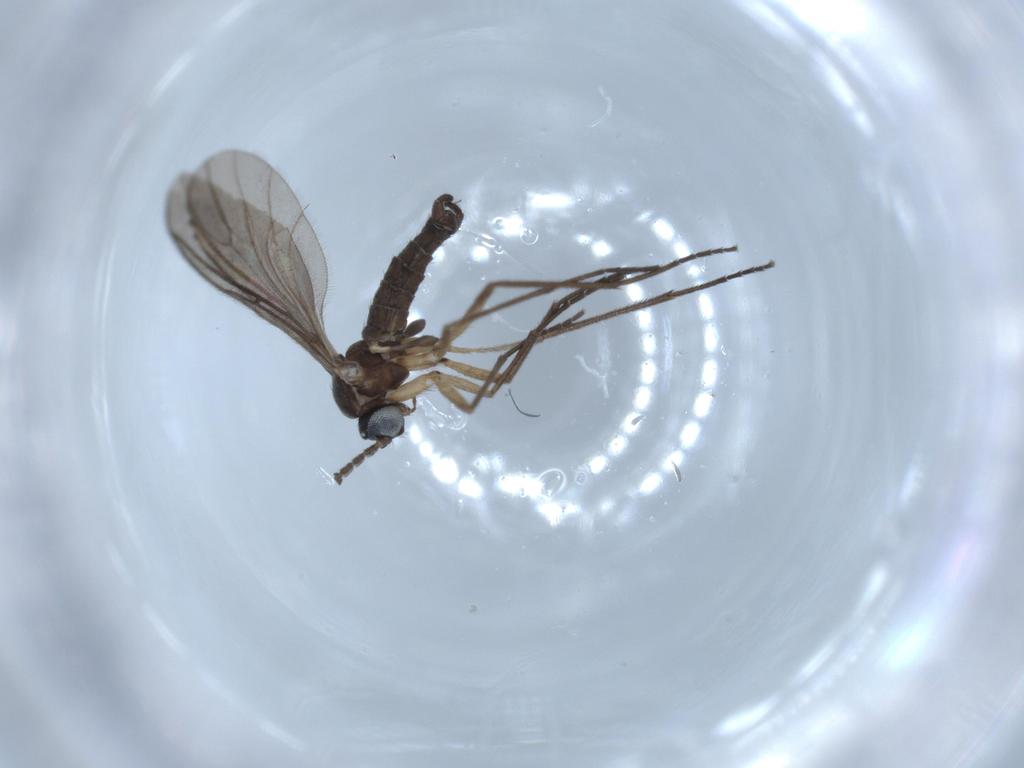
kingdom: Animalia
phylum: Arthropoda
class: Insecta
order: Diptera
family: Sciaridae
